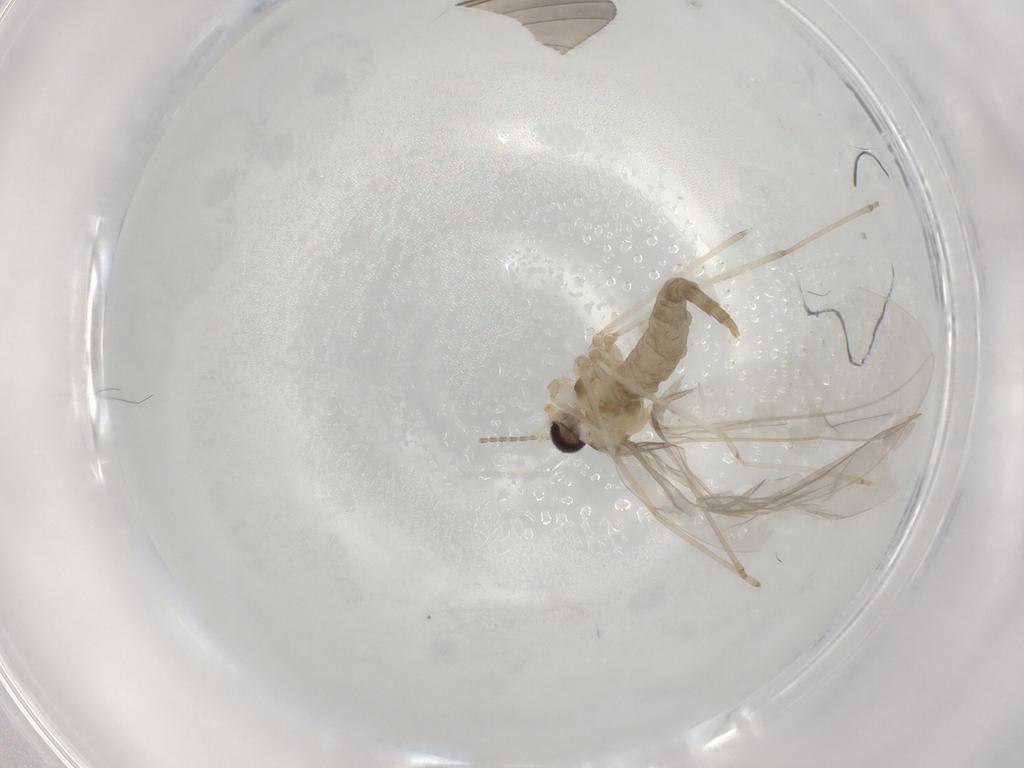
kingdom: Animalia
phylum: Arthropoda
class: Insecta
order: Diptera
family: Cecidomyiidae
